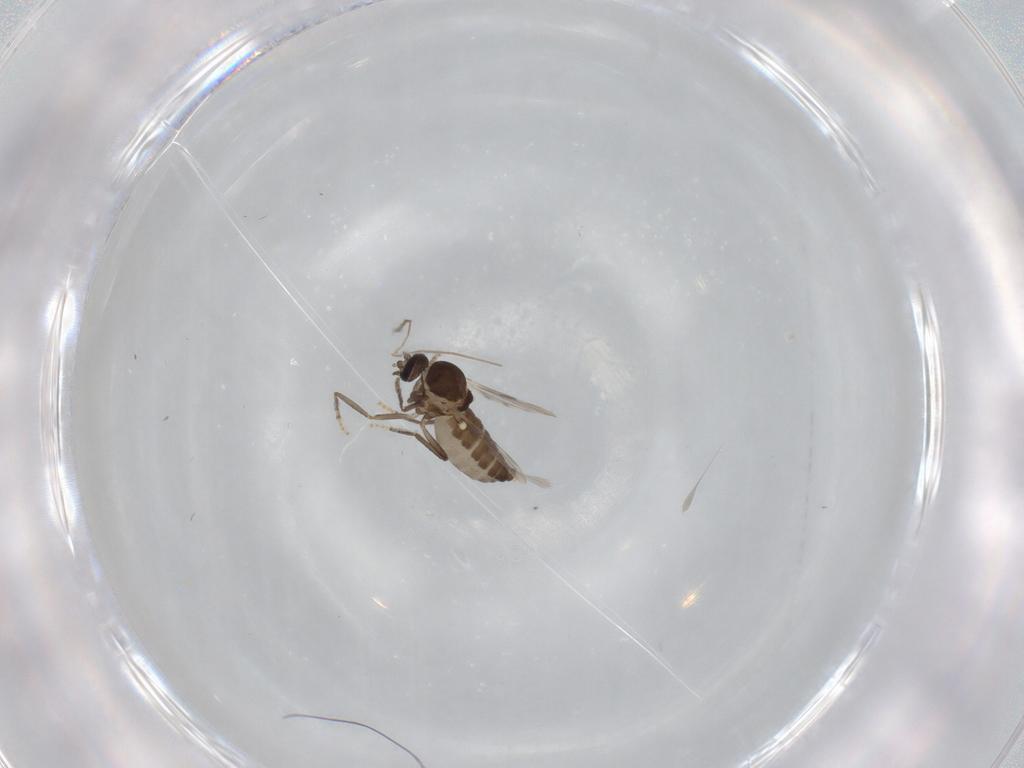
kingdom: Animalia
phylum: Arthropoda
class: Insecta
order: Diptera
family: Ceratopogonidae
